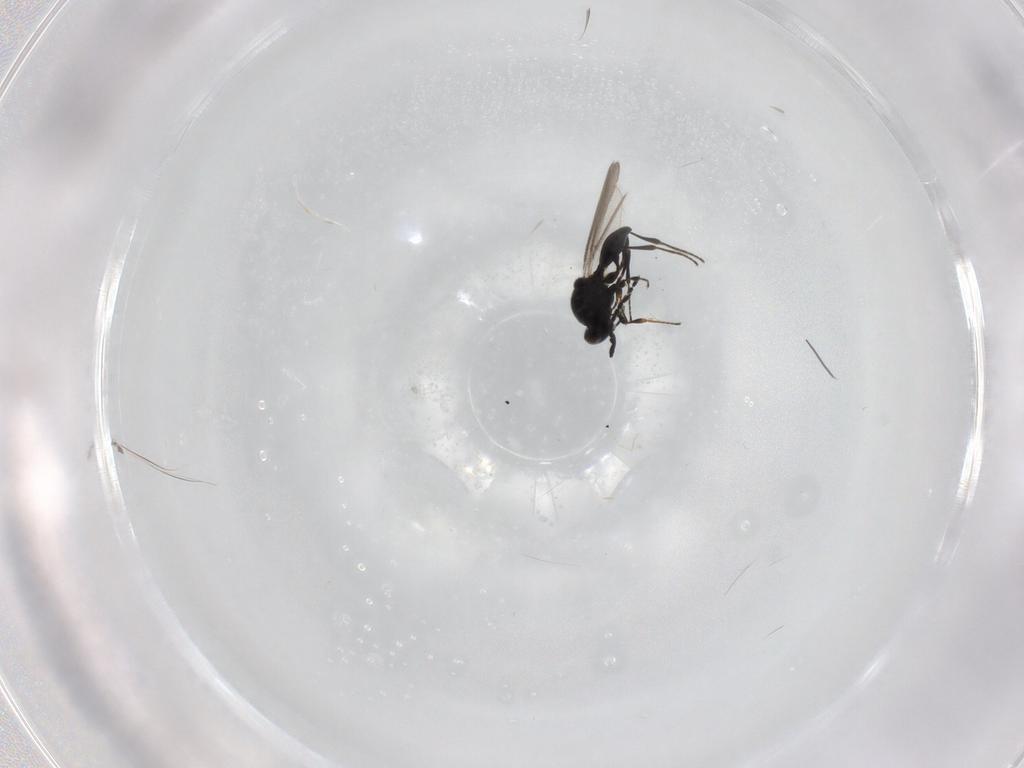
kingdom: Animalia
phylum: Arthropoda
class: Insecta
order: Hymenoptera
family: Platygastridae
